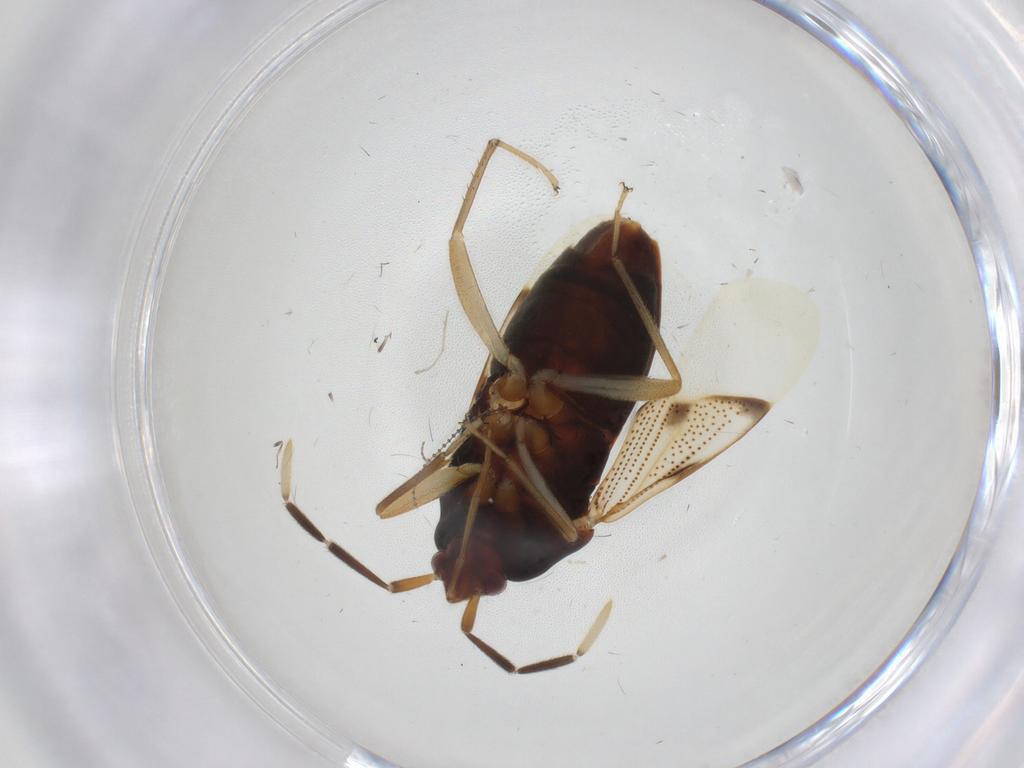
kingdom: Animalia
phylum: Arthropoda
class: Insecta
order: Hemiptera
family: Rhyparochromidae
